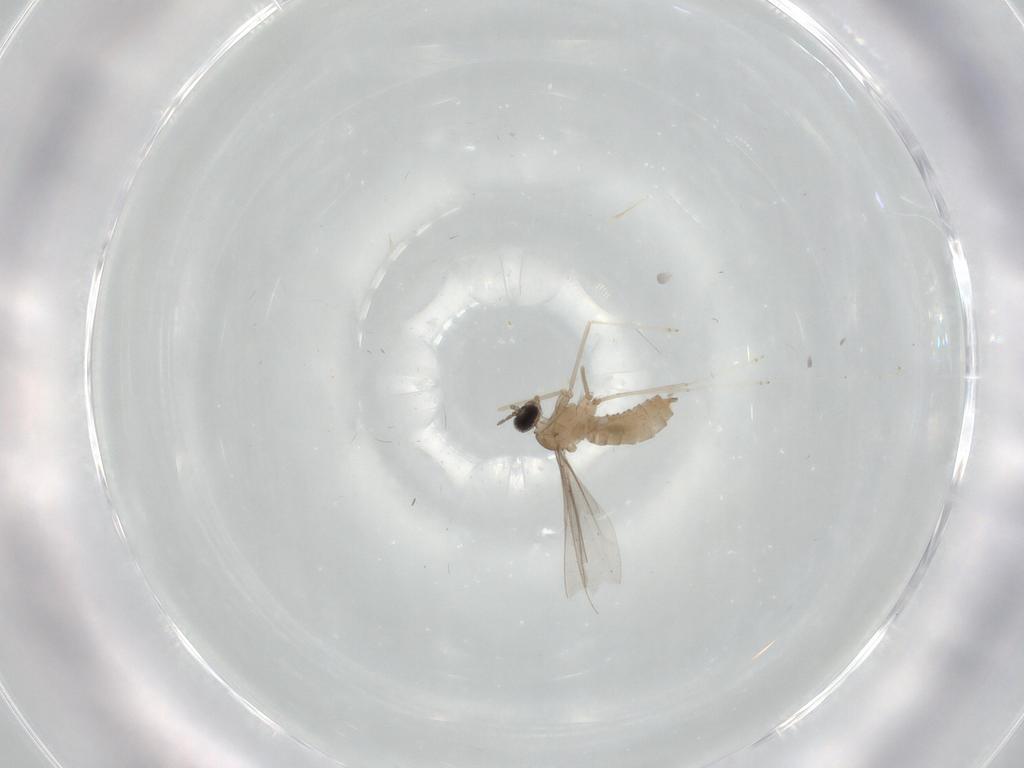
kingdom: Animalia
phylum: Arthropoda
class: Insecta
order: Diptera
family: Cecidomyiidae
